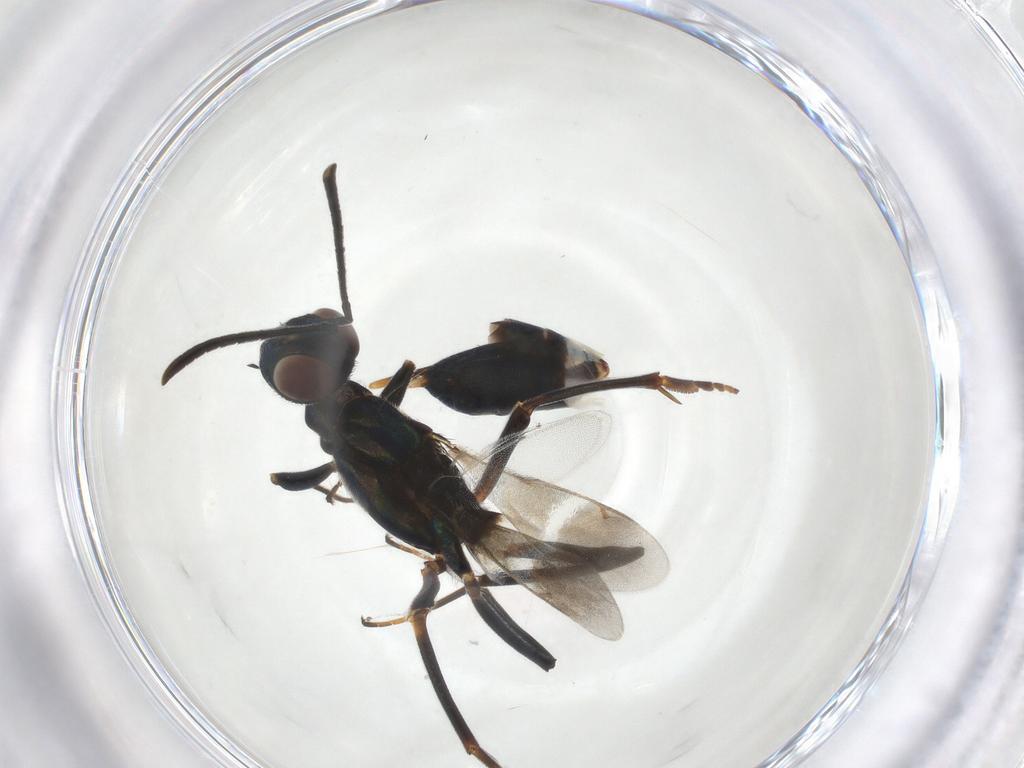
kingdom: Animalia
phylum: Arthropoda
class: Insecta
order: Hymenoptera
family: Eupelmidae
